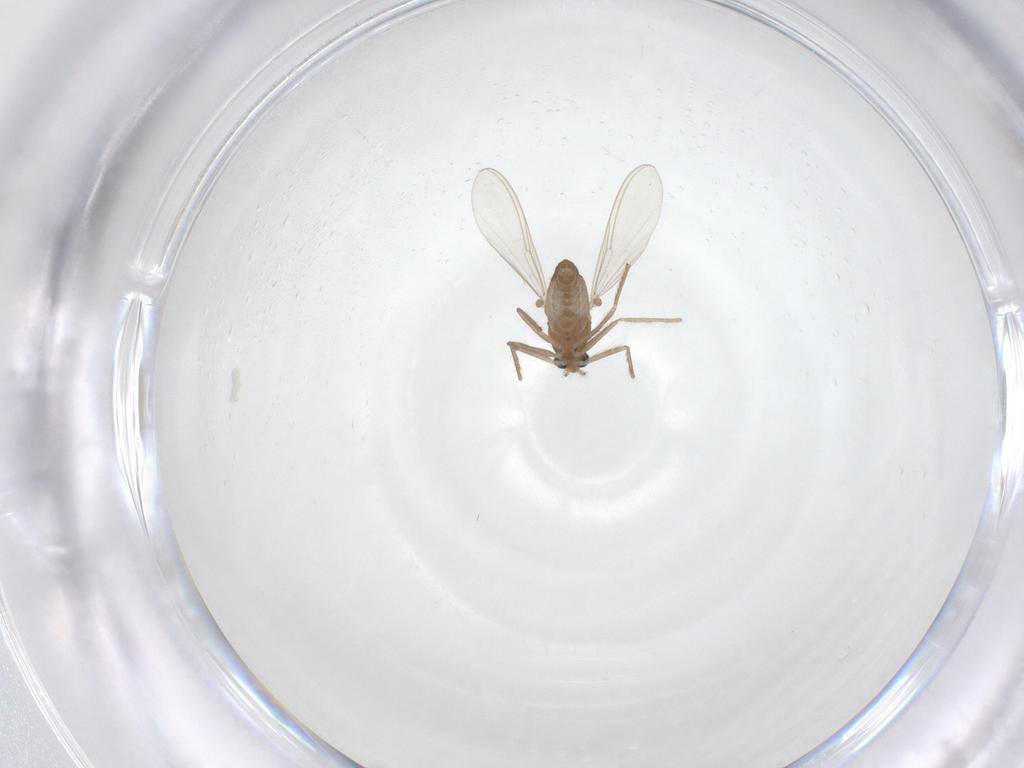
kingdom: Animalia
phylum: Arthropoda
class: Insecta
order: Diptera
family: Chironomidae
